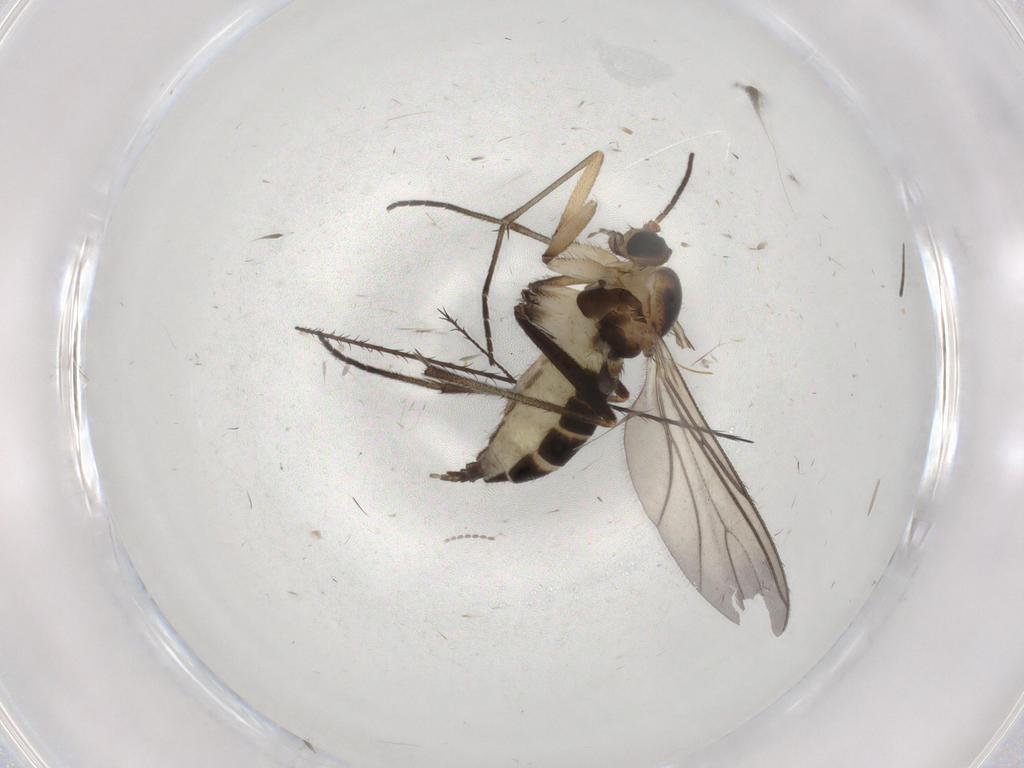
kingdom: Animalia
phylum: Arthropoda
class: Insecta
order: Diptera
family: Sciaridae
